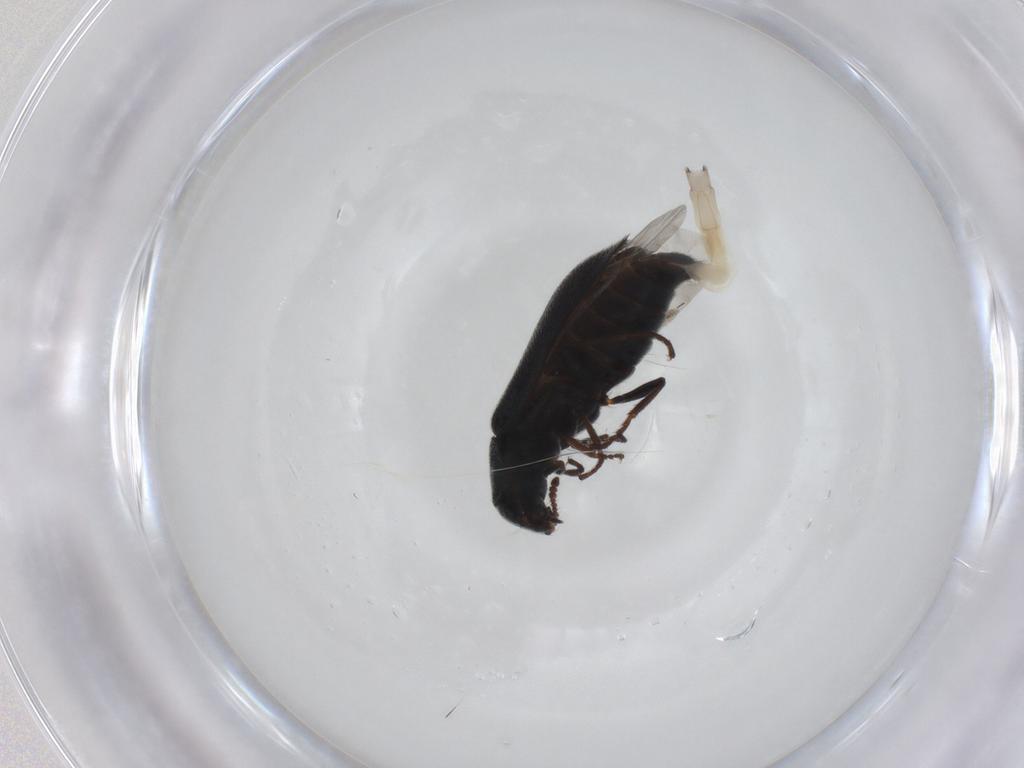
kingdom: Animalia
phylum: Arthropoda
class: Insecta
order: Coleoptera
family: Melyridae
